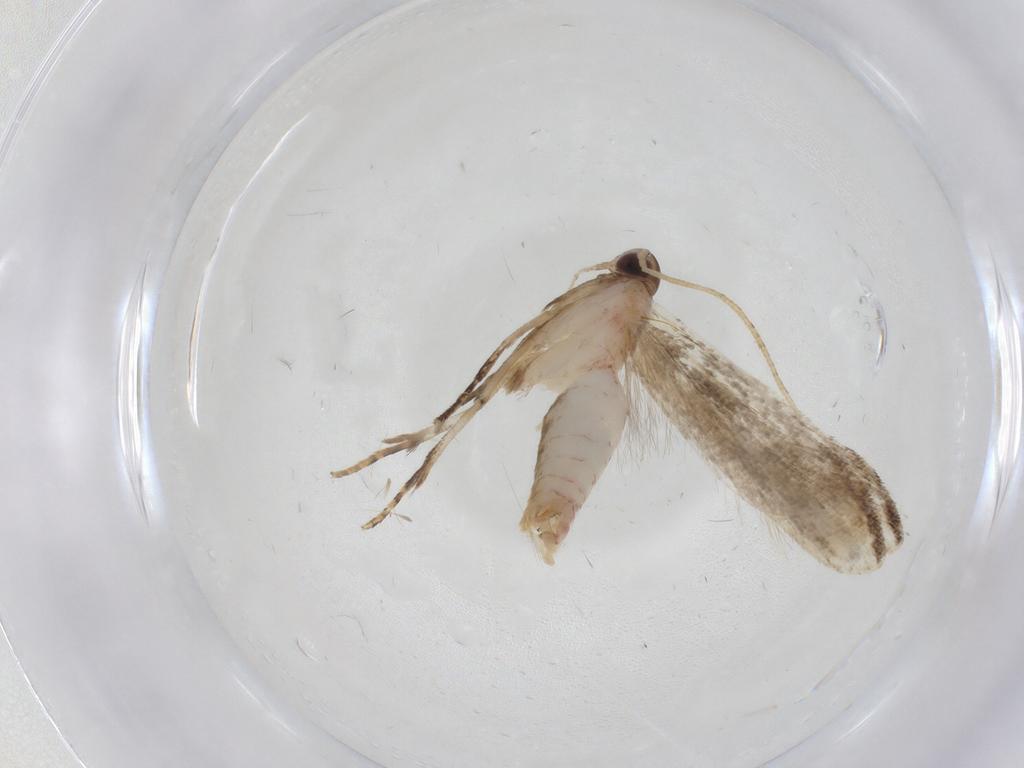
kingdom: Animalia
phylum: Arthropoda
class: Insecta
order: Lepidoptera
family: Gelechiidae
